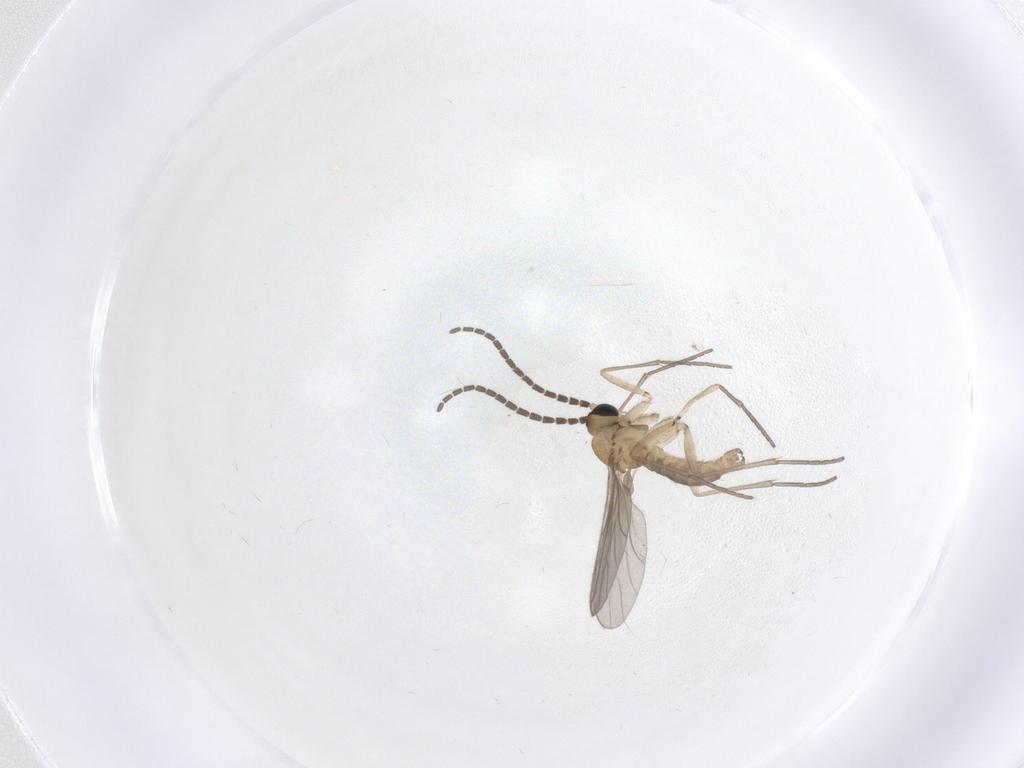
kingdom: Animalia
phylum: Arthropoda
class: Insecta
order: Diptera
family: Sciaridae
